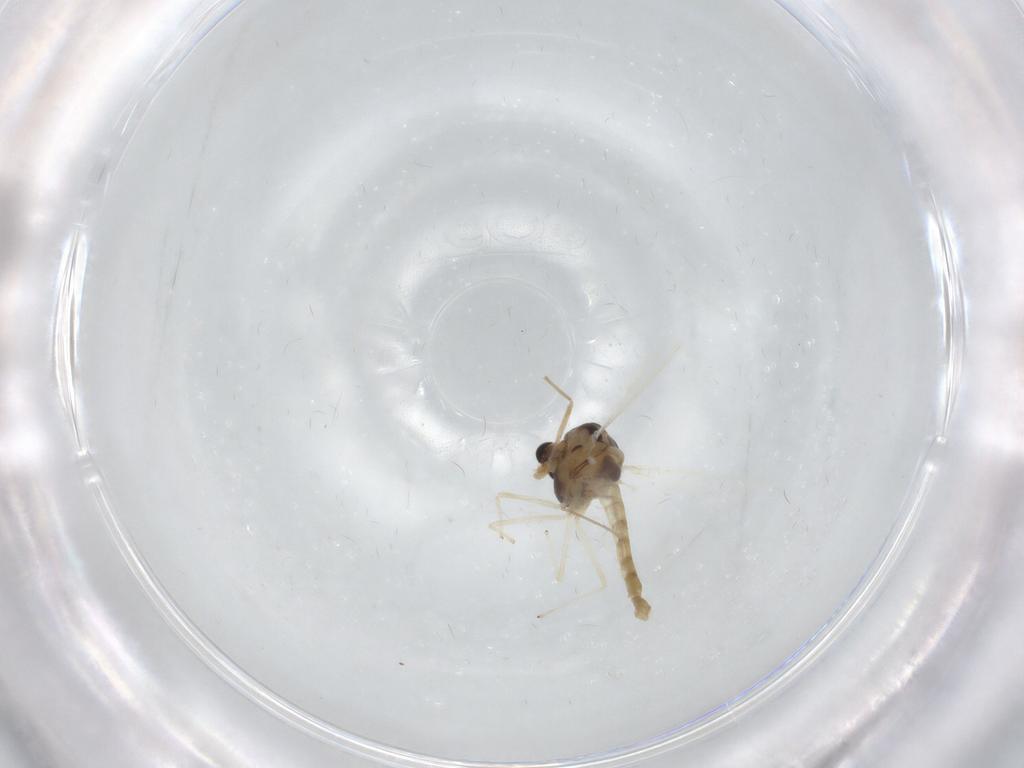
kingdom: Animalia
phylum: Arthropoda
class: Insecta
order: Diptera
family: Chironomidae
